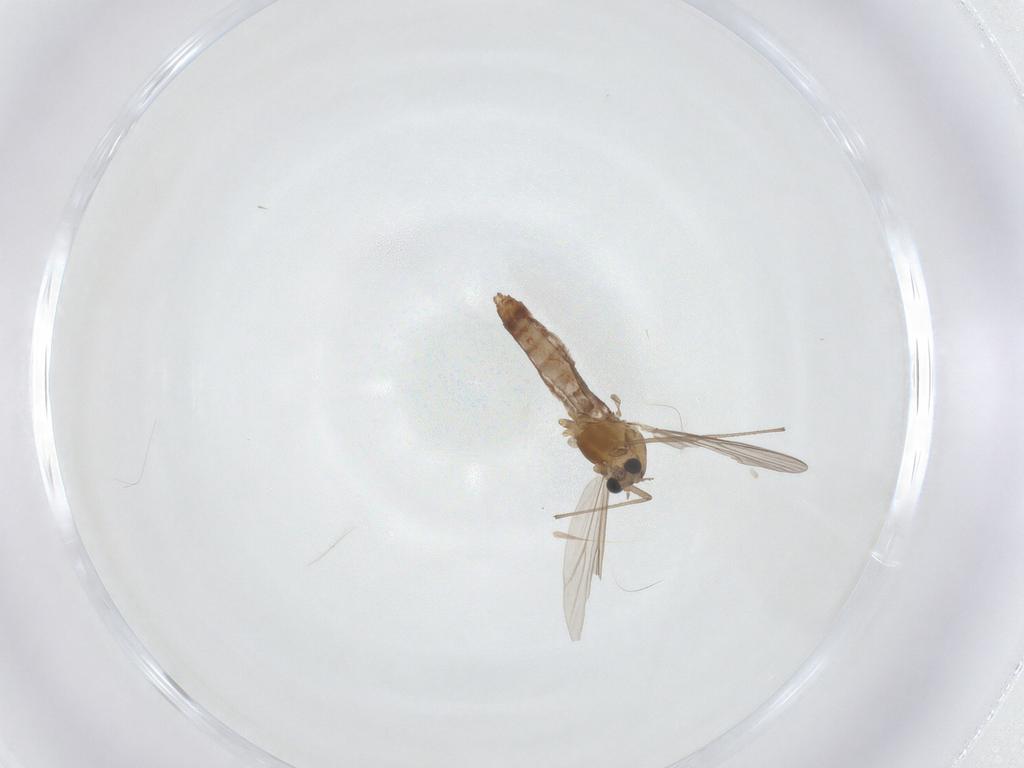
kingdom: Animalia
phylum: Arthropoda
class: Insecta
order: Diptera
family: Chironomidae
